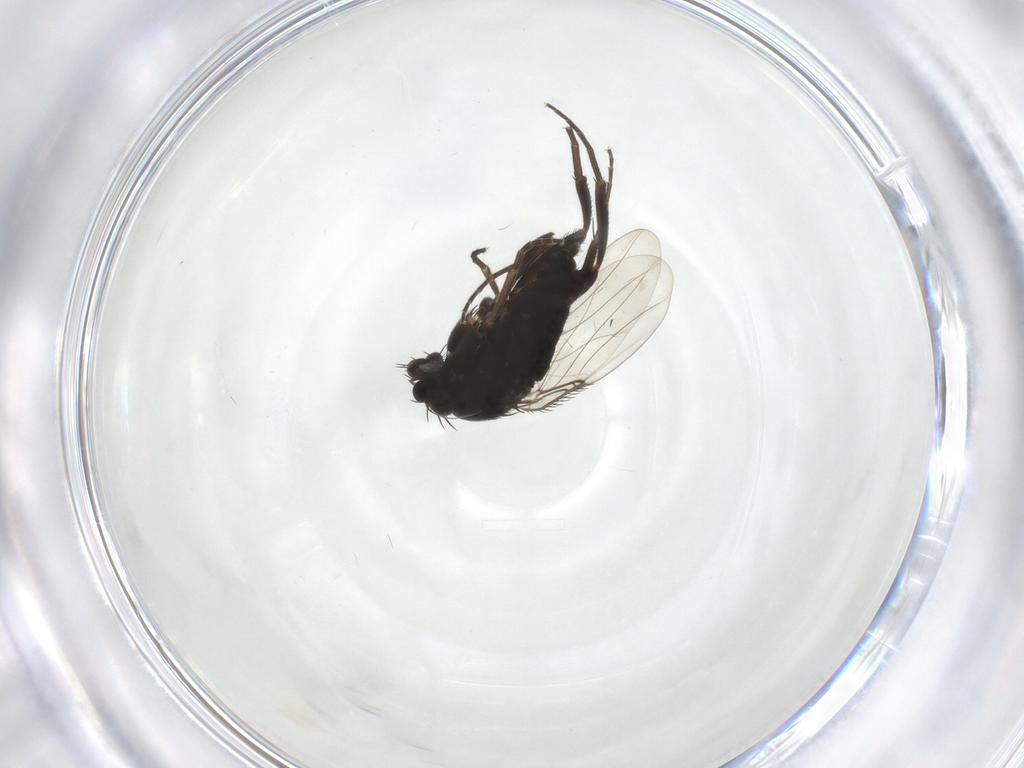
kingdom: Animalia
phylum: Arthropoda
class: Insecta
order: Diptera
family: Phoridae
